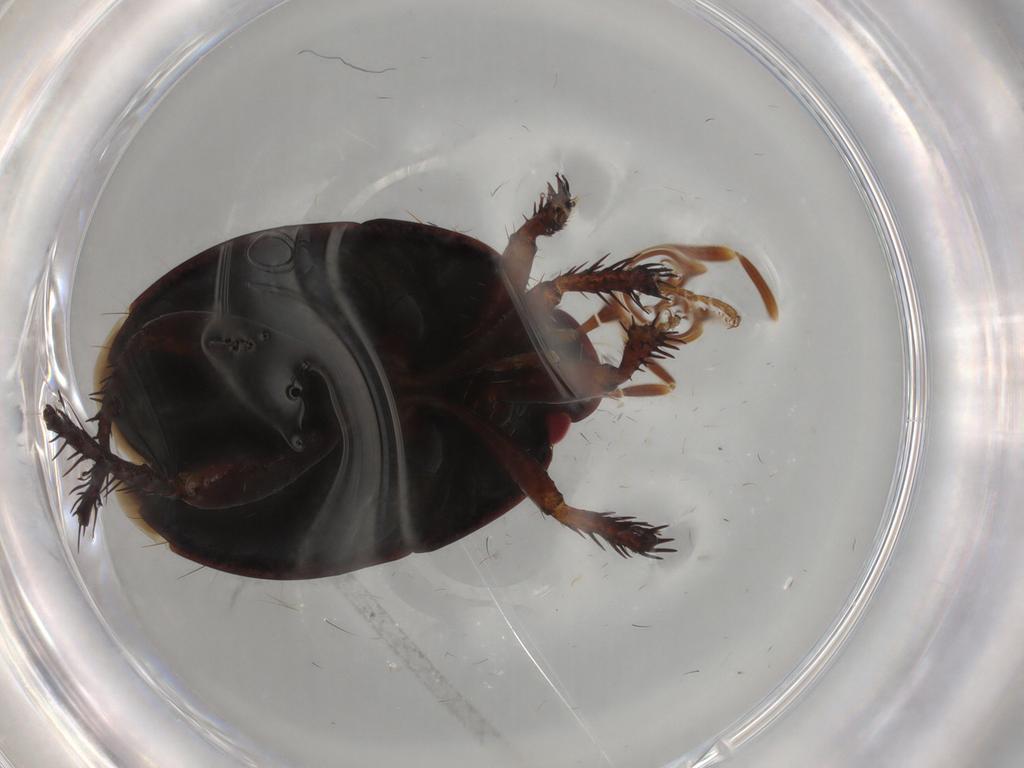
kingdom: Animalia
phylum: Arthropoda
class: Insecta
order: Hemiptera
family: Cydnidae
